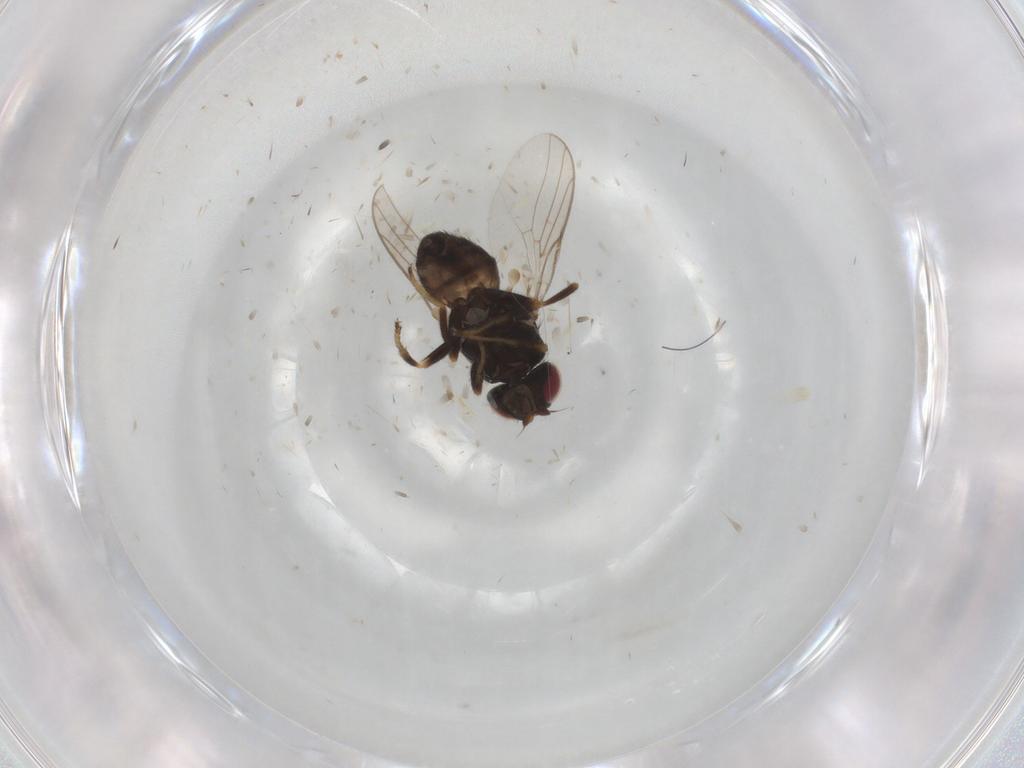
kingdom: Animalia
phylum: Arthropoda
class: Insecta
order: Diptera
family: Chloropidae
